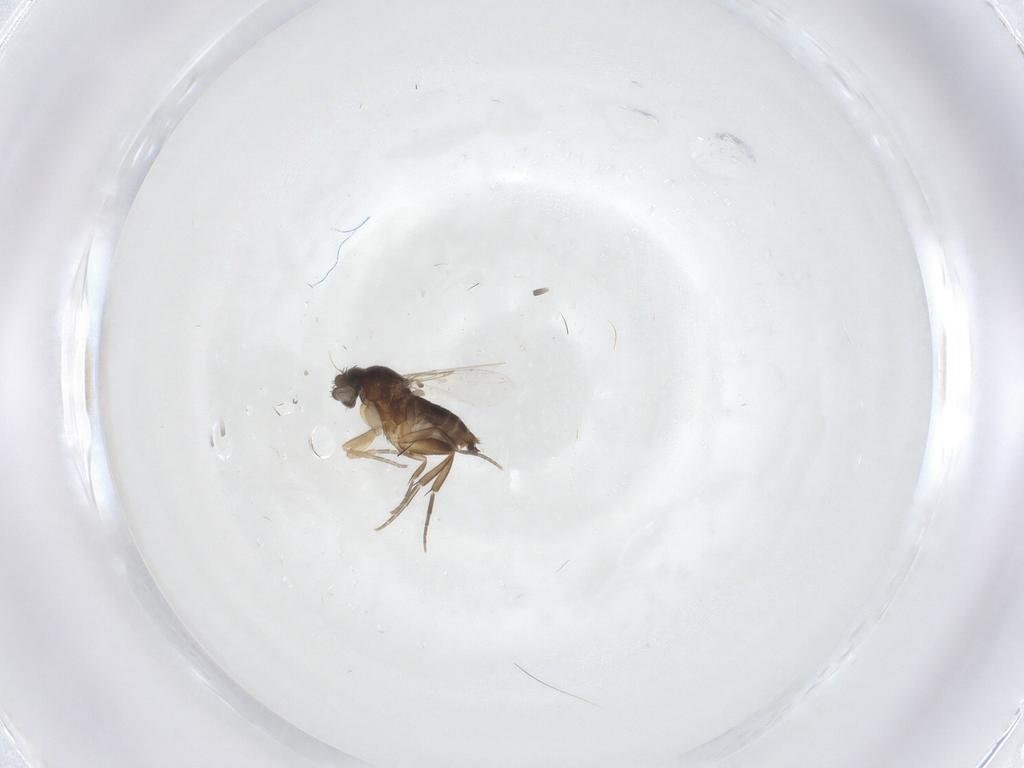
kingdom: Animalia
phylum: Arthropoda
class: Insecta
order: Diptera
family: Phoridae
